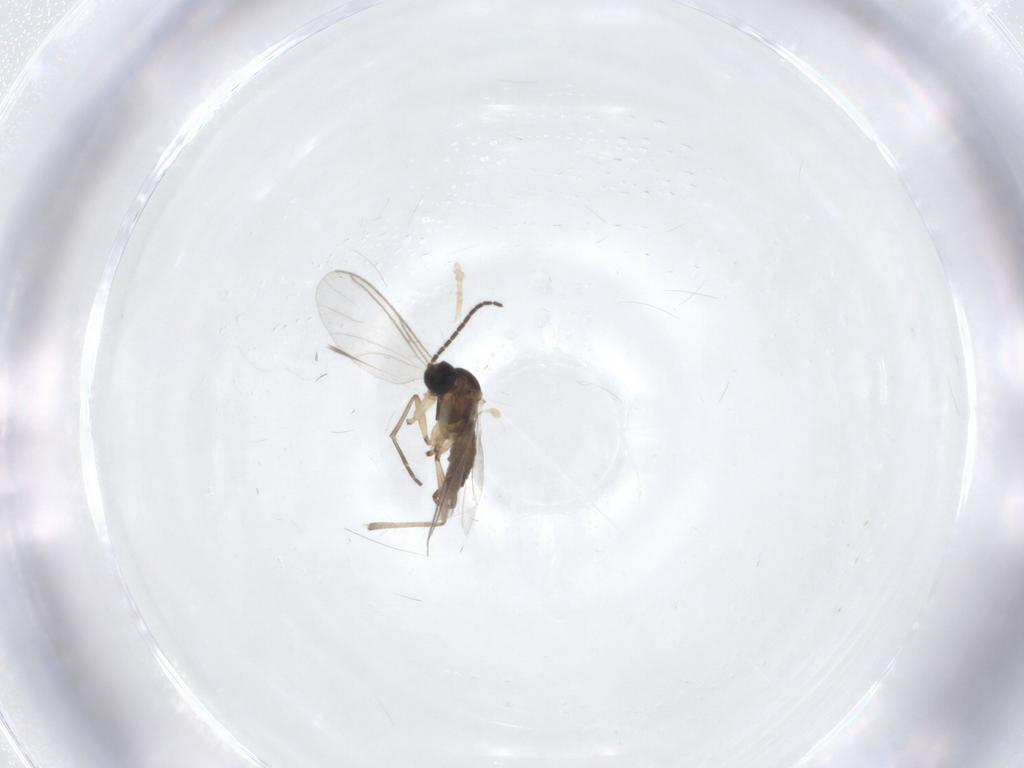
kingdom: Animalia
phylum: Arthropoda
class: Insecta
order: Diptera
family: Sciaridae
